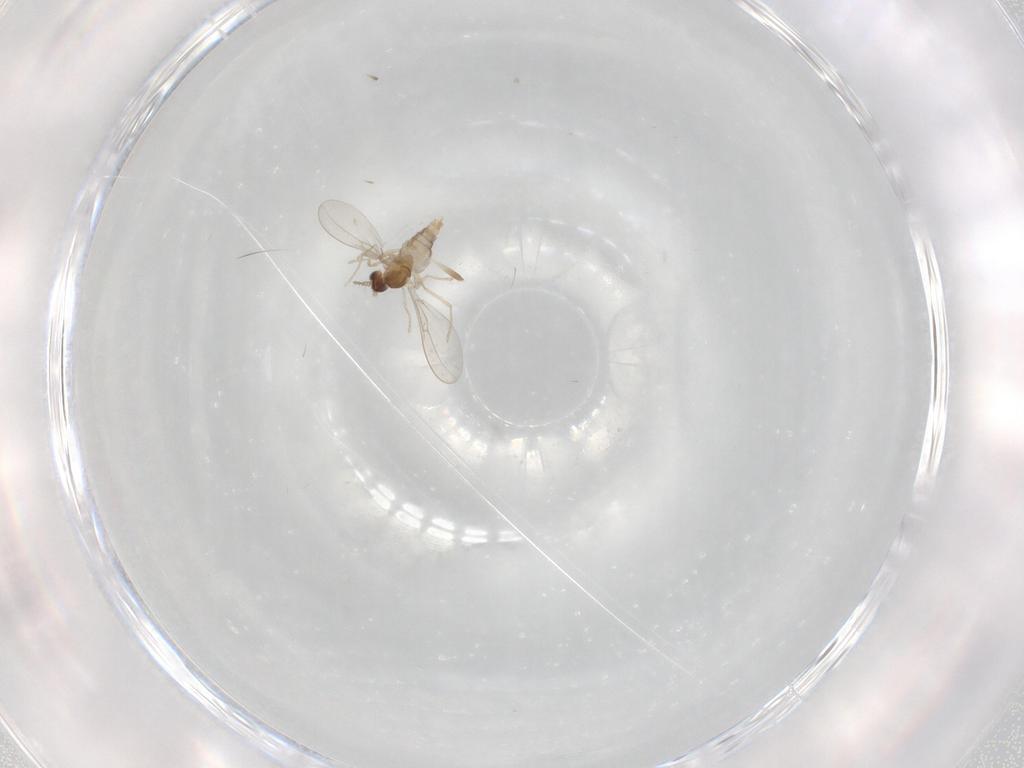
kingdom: Animalia
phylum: Arthropoda
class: Insecta
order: Diptera
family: Cecidomyiidae
